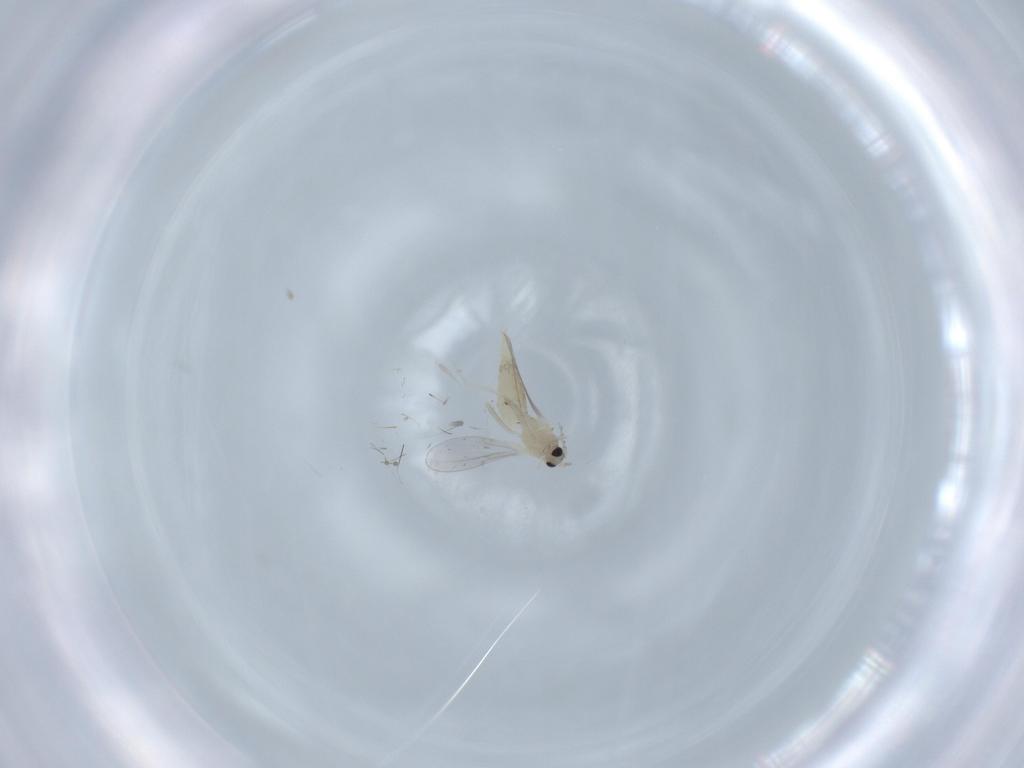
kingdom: Animalia
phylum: Arthropoda
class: Insecta
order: Diptera
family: Cecidomyiidae
